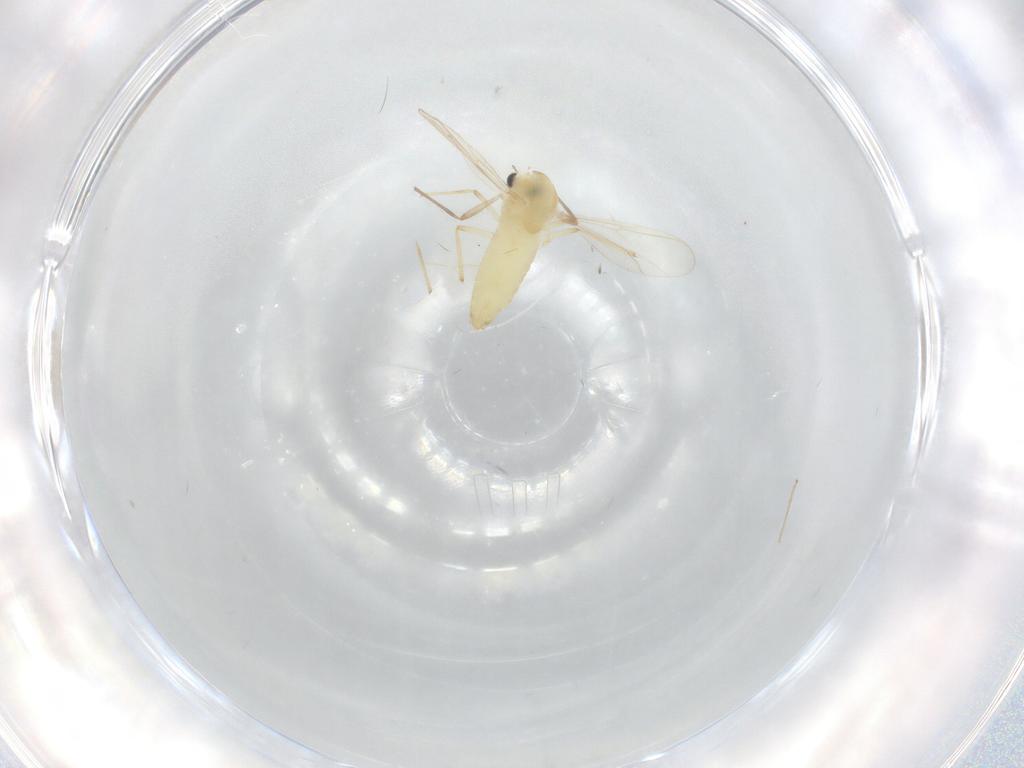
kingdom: Animalia
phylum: Arthropoda
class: Insecta
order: Diptera
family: Chironomidae
